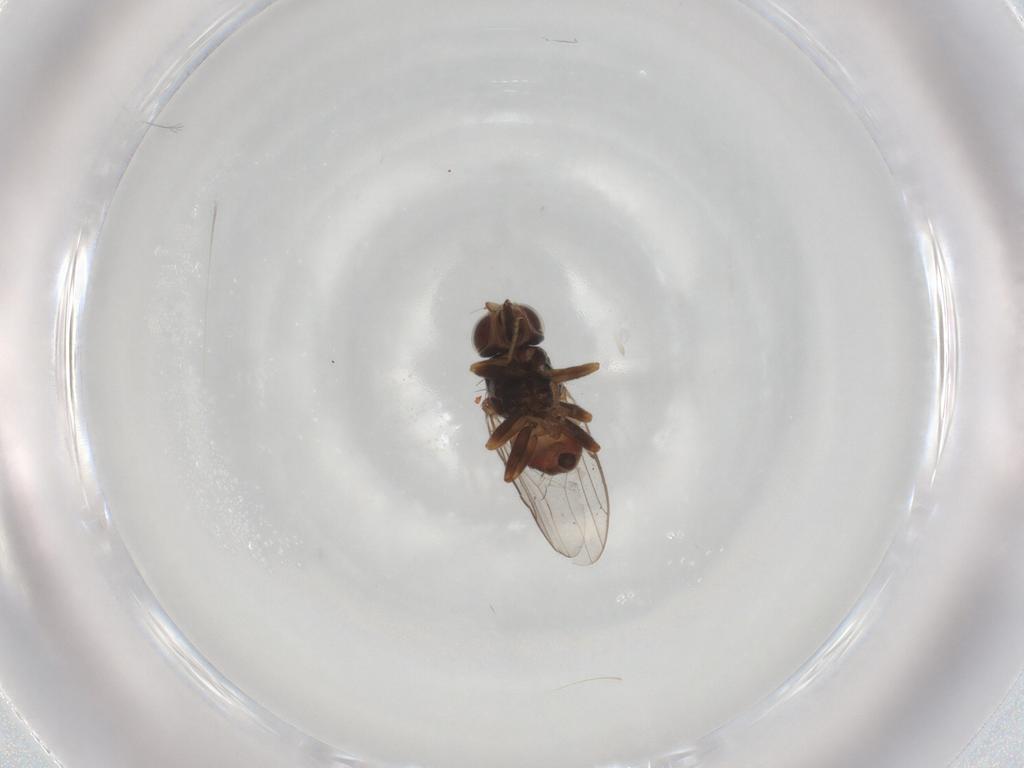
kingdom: Animalia
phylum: Arthropoda
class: Insecta
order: Diptera
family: Chloropidae
